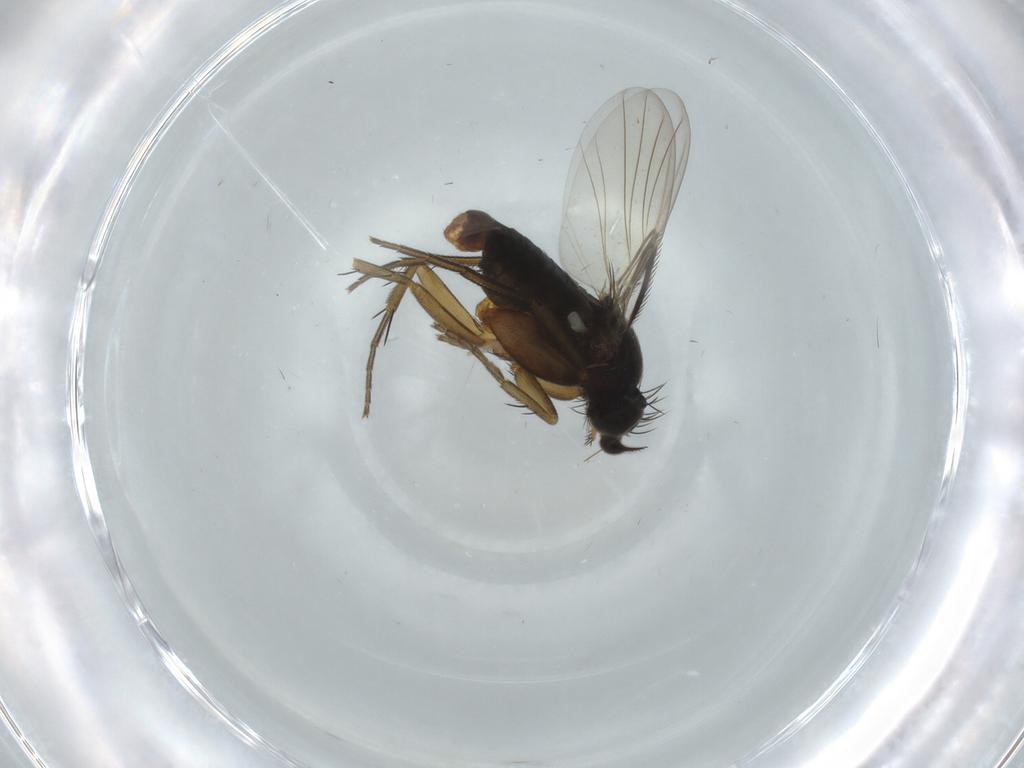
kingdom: Animalia
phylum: Arthropoda
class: Insecta
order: Diptera
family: Phoridae
